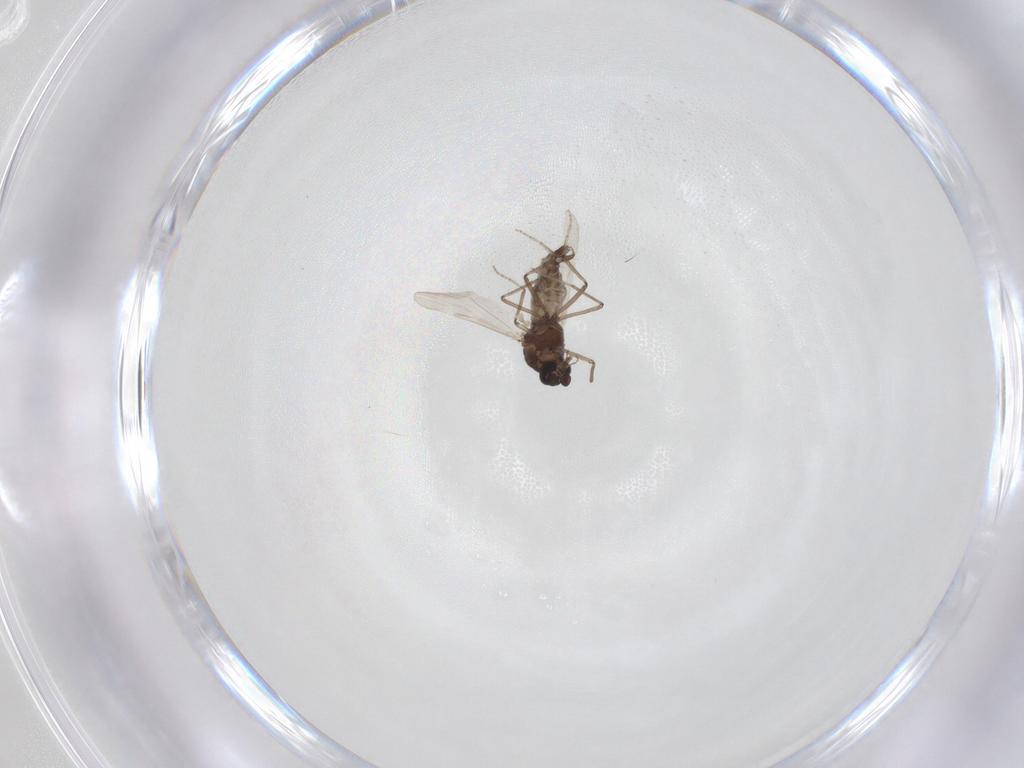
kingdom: Animalia
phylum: Arthropoda
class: Insecta
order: Diptera
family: Ceratopogonidae
